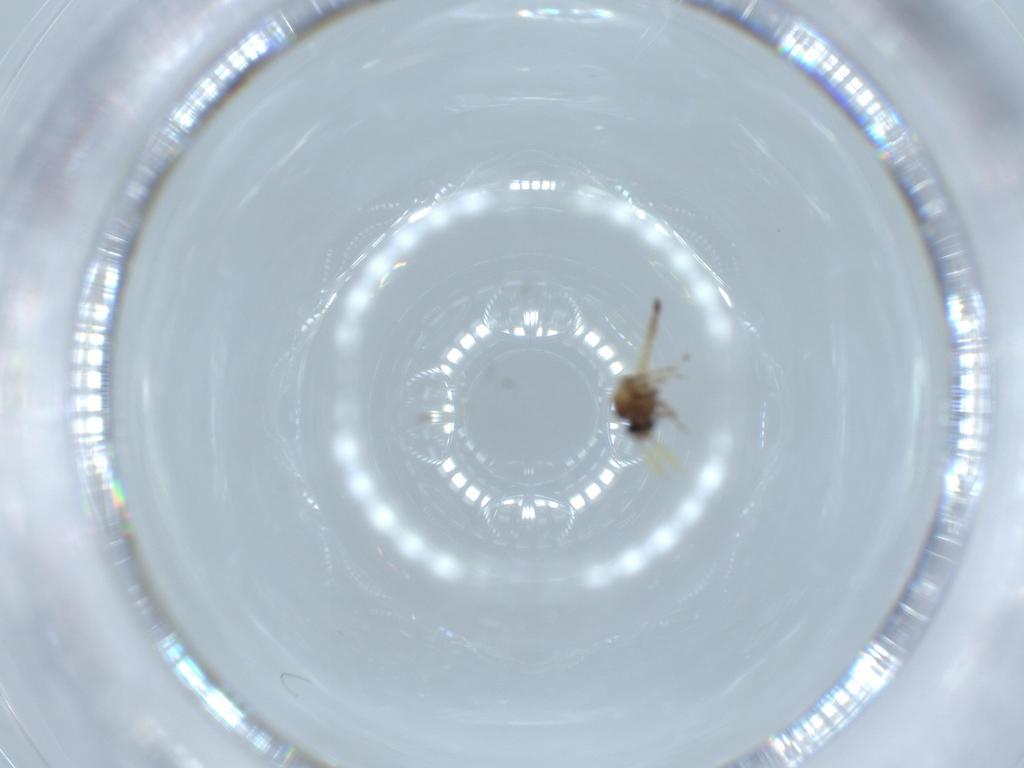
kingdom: Animalia
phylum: Arthropoda
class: Insecta
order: Diptera
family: Ceratopogonidae
